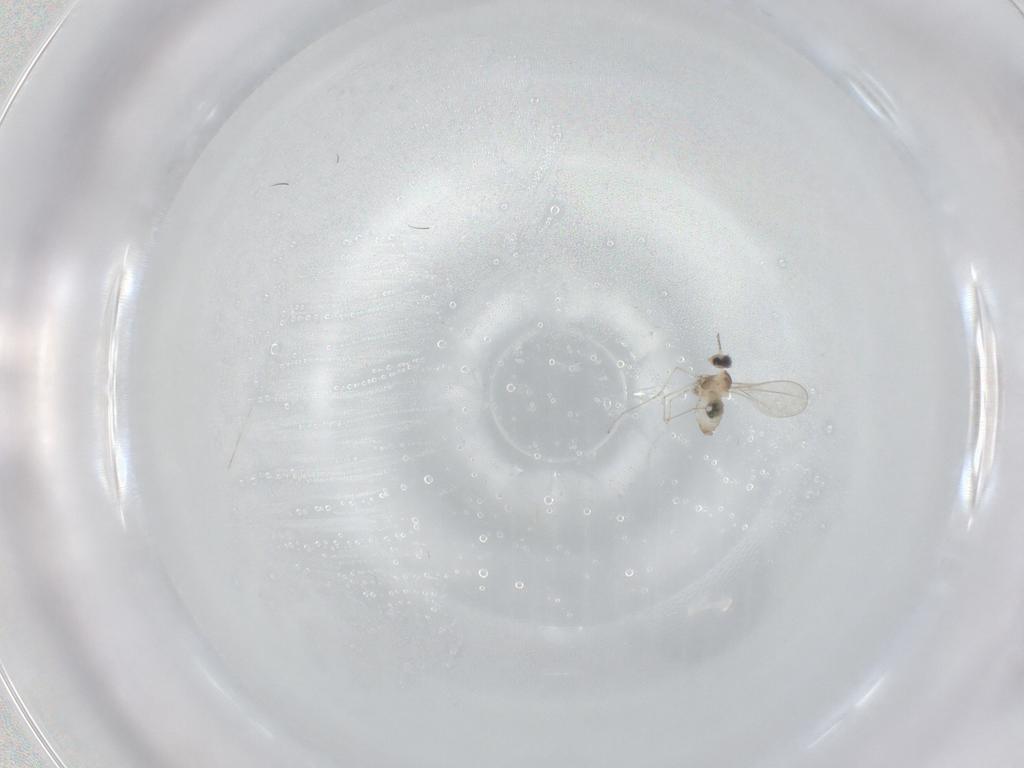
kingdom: Animalia
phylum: Arthropoda
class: Insecta
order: Diptera
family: Cecidomyiidae
